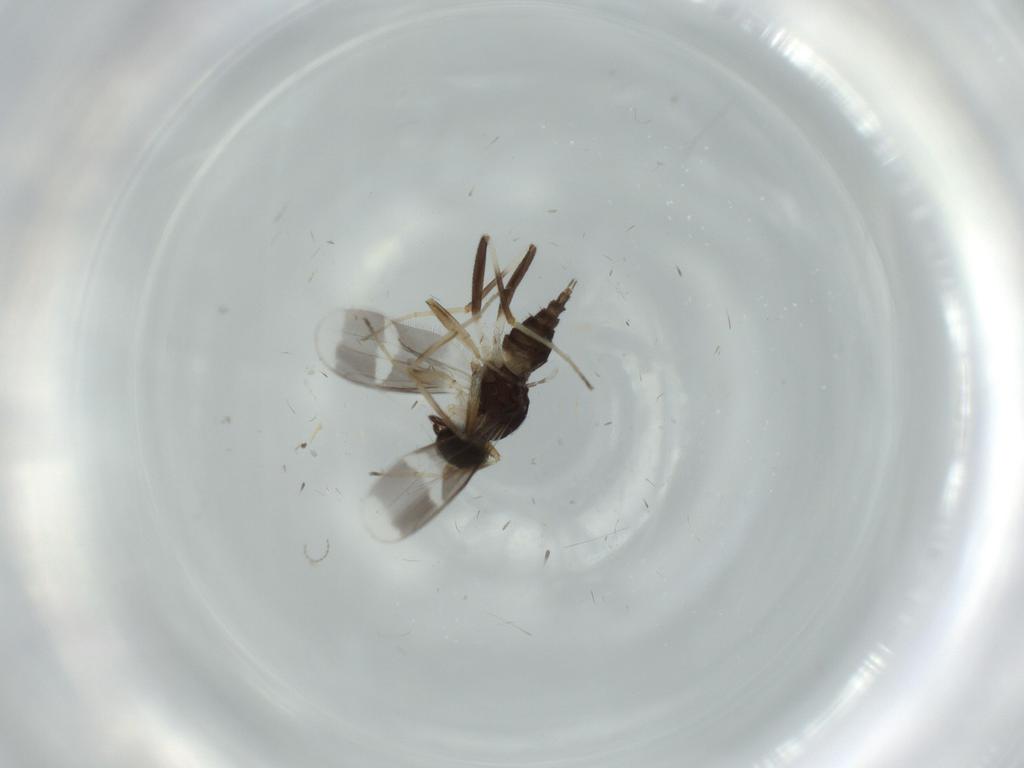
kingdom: Animalia
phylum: Arthropoda
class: Insecta
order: Diptera
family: Hybotidae
